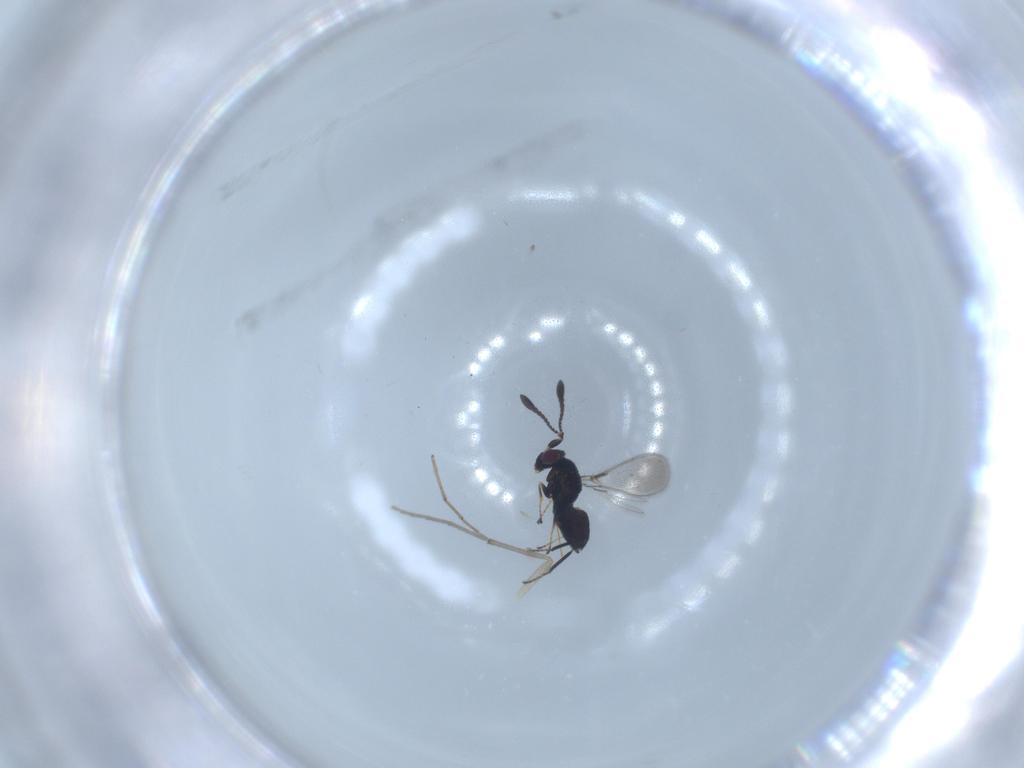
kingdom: Animalia
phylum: Arthropoda
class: Insecta
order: Hymenoptera
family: Mymaridae
